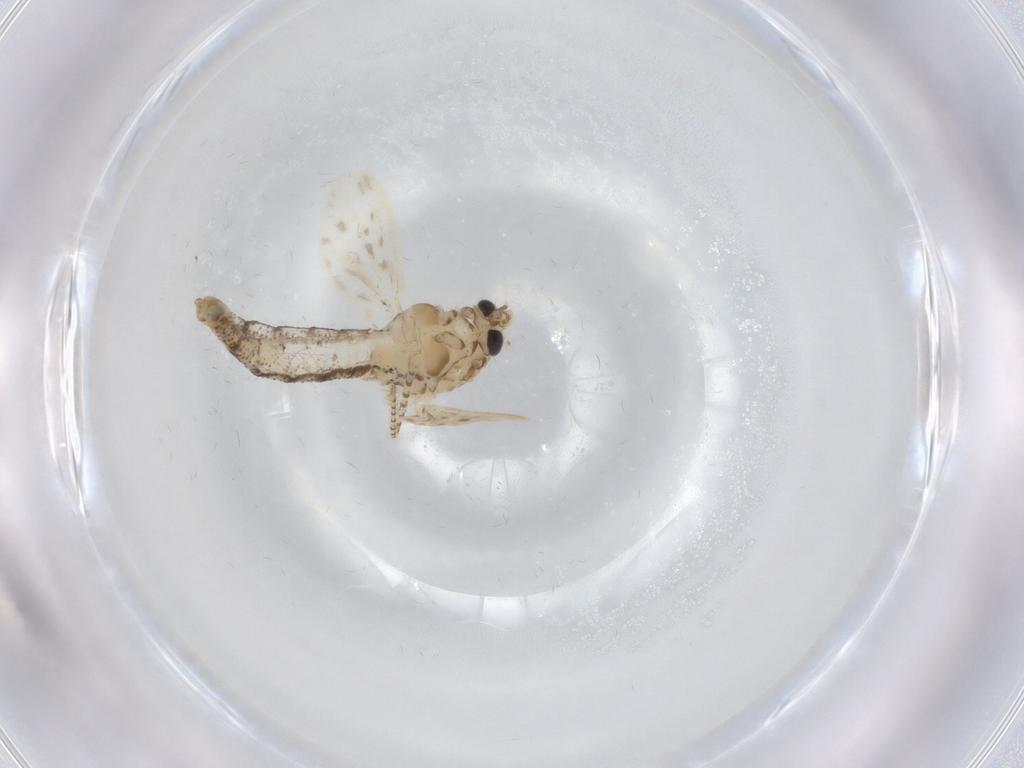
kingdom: Animalia
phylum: Arthropoda
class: Insecta
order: Diptera
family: Chaoboridae
